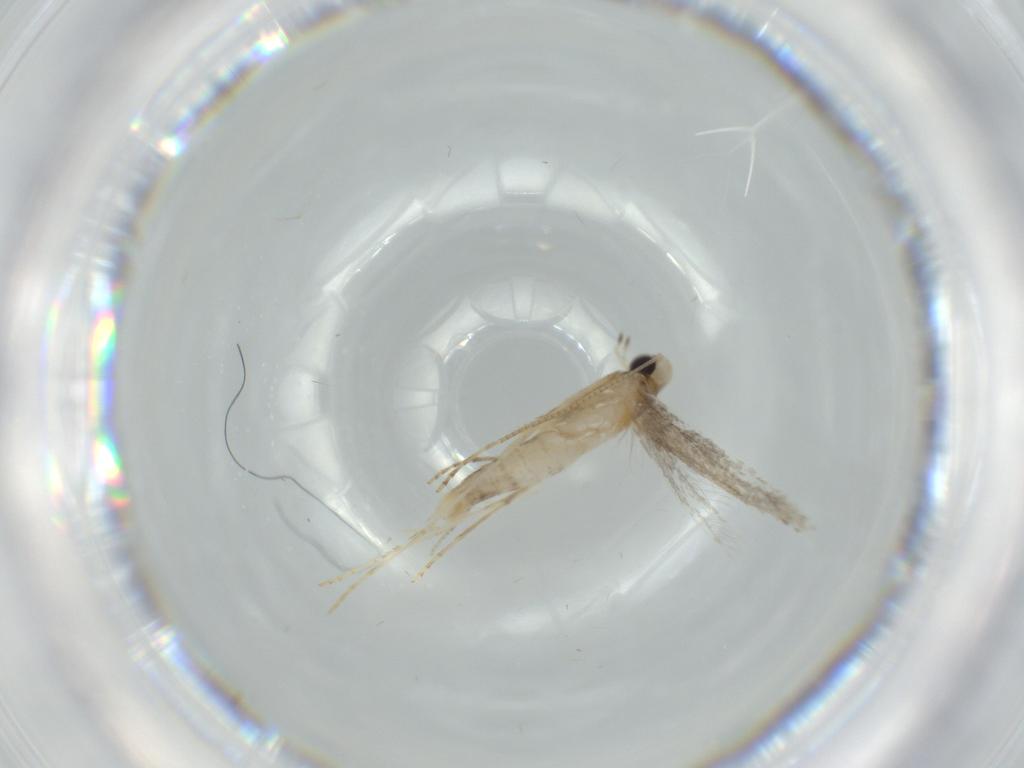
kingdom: Animalia
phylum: Arthropoda
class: Insecta
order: Lepidoptera
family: Gracillariidae
